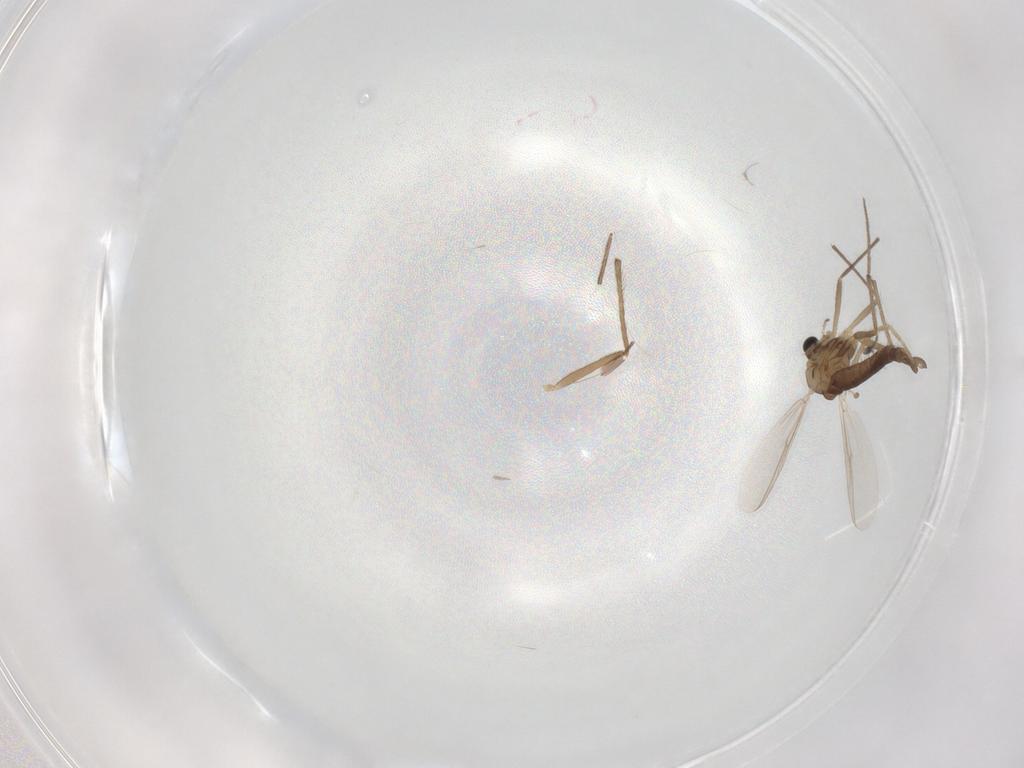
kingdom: Animalia
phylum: Arthropoda
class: Insecta
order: Diptera
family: Chironomidae
